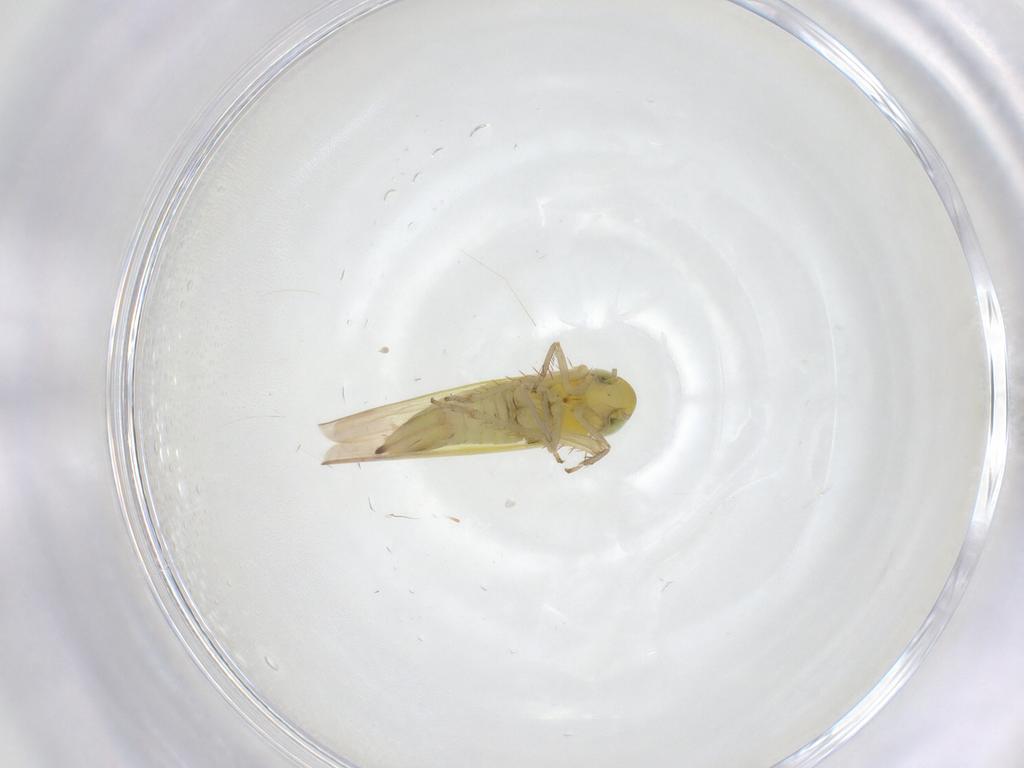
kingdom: Animalia
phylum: Arthropoda
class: Insecta
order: Hemiptera
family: Cicadellidae
